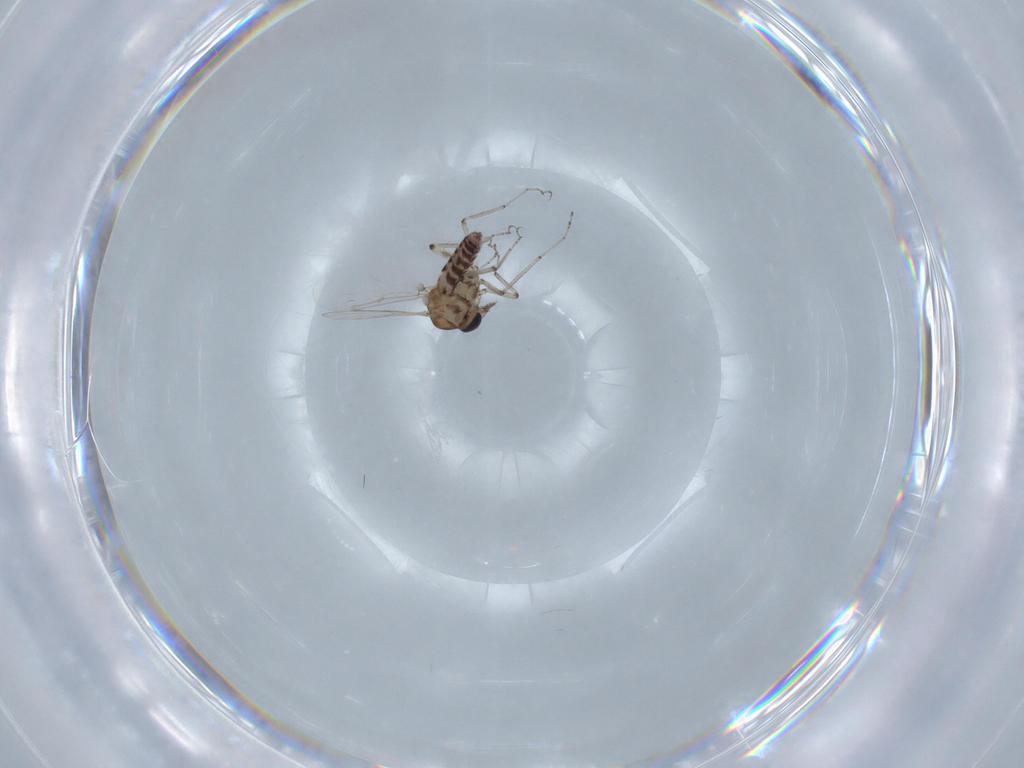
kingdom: Animalia
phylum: Arthropoda
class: Insecta
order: Diptera
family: Ceratopogonidae
